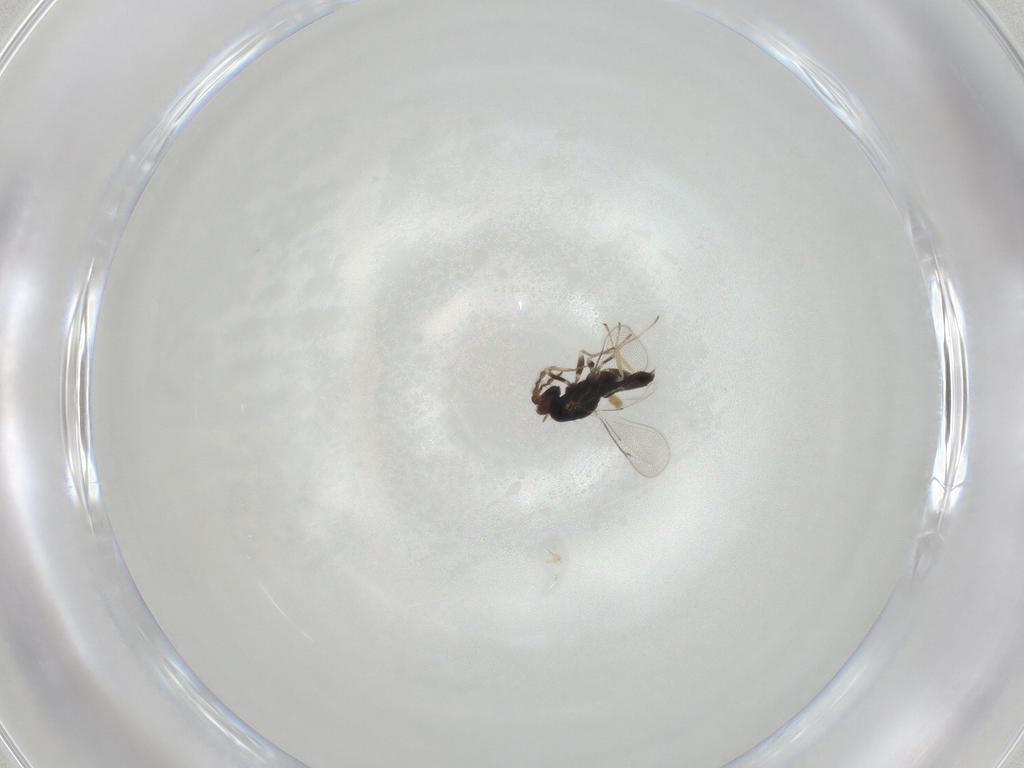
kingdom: Animalia
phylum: Arthropoda
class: Insecta
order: Hymenoptera
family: Eulophidae
